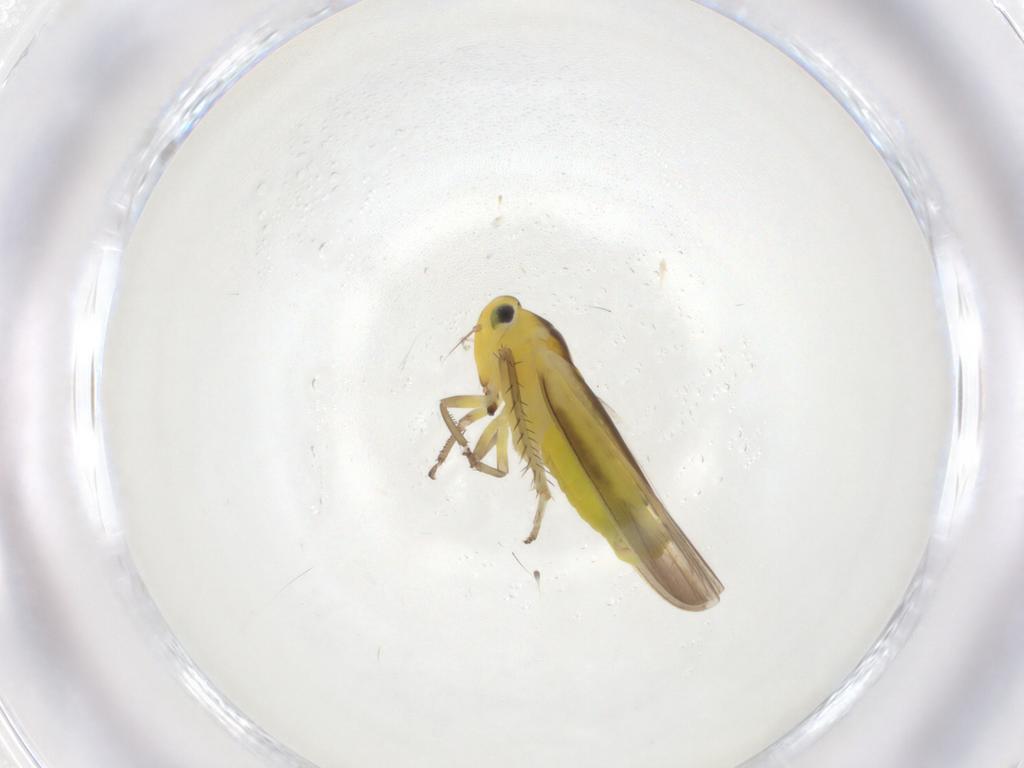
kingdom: Animalia
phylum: Arthropoda
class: Insecta
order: Hemiptera
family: Cicadellidae
